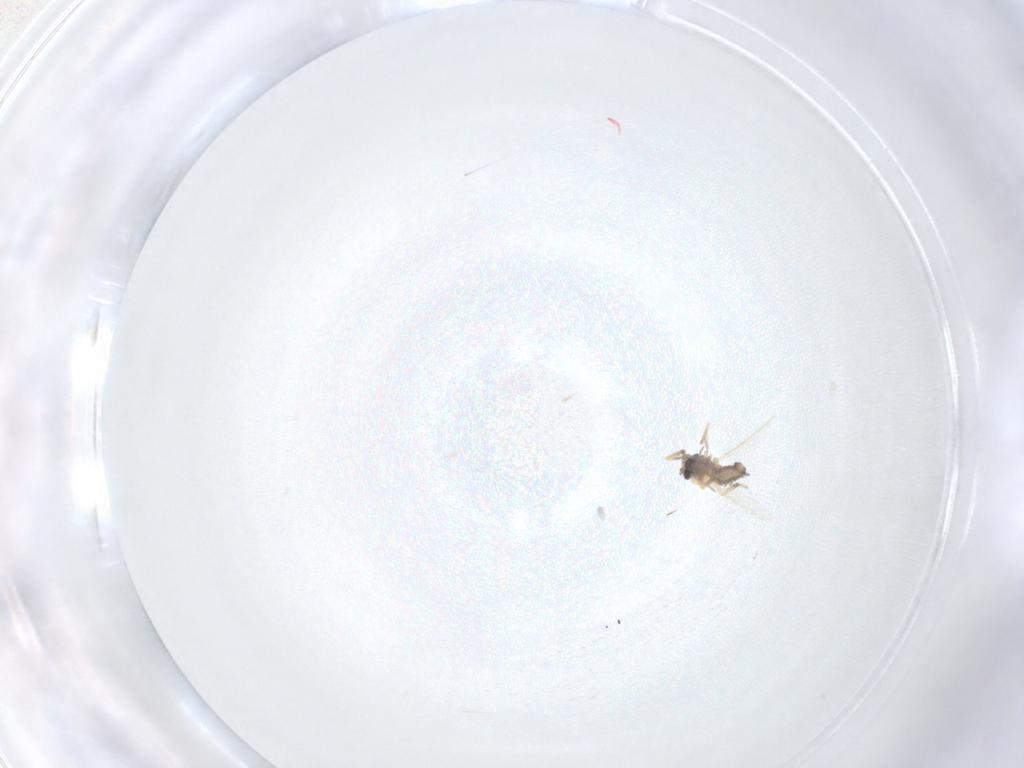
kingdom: Animalia
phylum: Arthropoda
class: Insecta
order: Diptera
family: Ceratopogonidae
